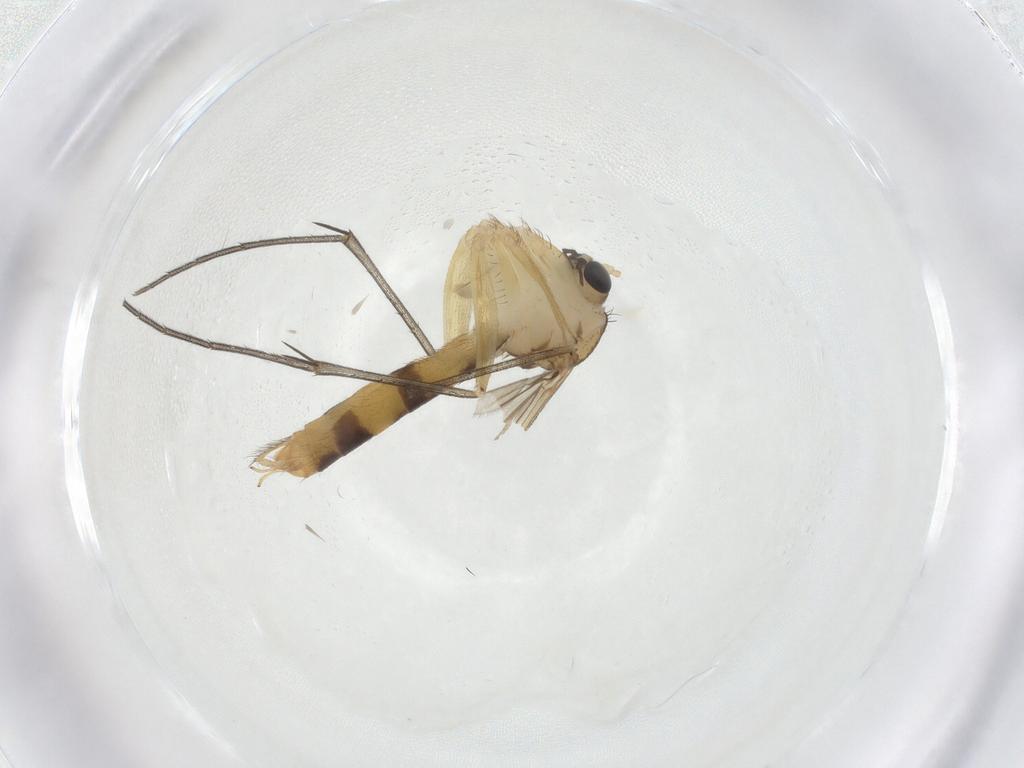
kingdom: Animalia
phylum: Arthropoda
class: Insecta
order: Diptera
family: Mycetophilidae
